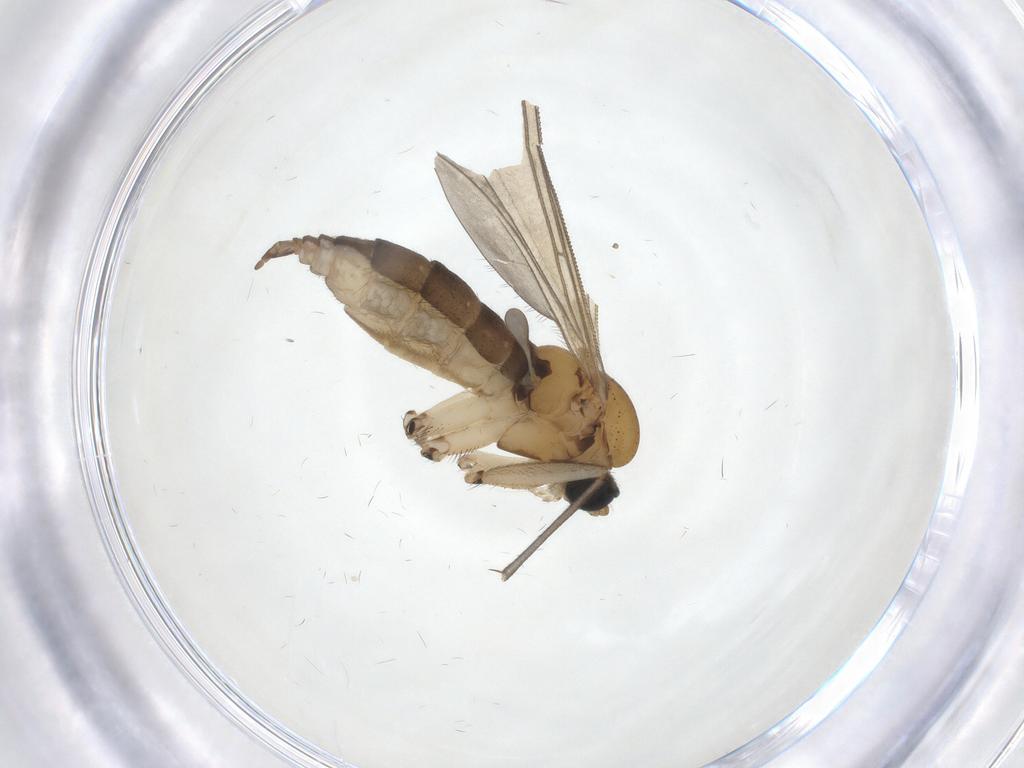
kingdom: Animalia
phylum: Arthropoda
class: Insecta
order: Diptera
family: Sciaridae
